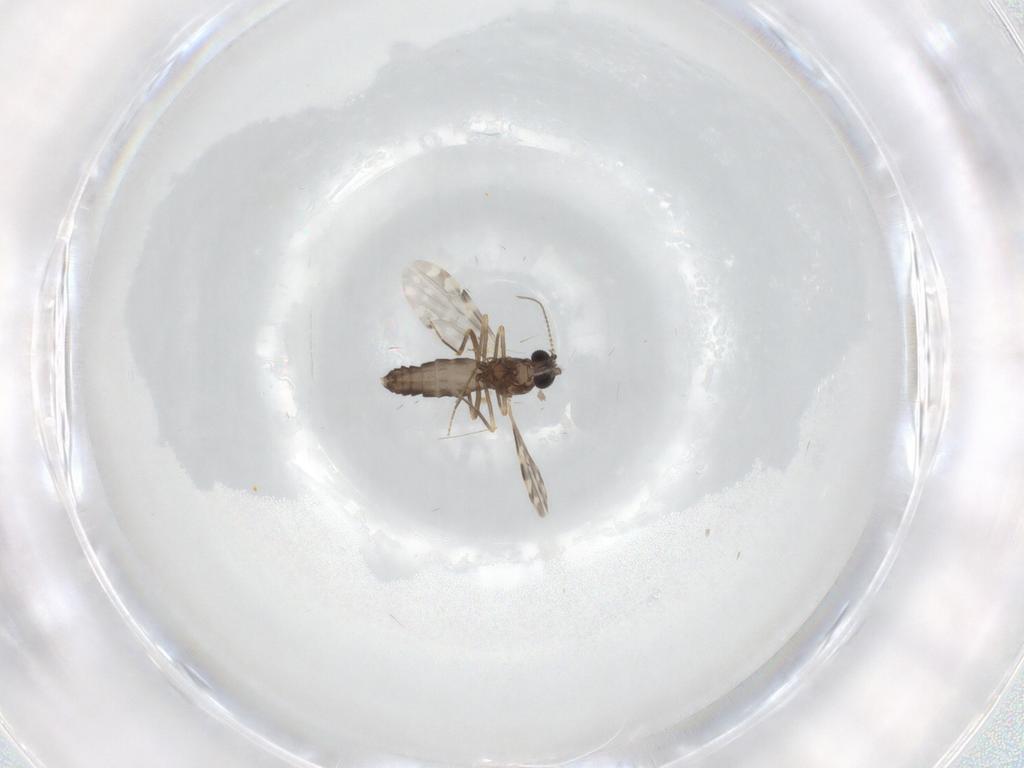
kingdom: Animalia
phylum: Arthropoda
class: Insecta
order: Diptera
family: Ceratopogonidae
